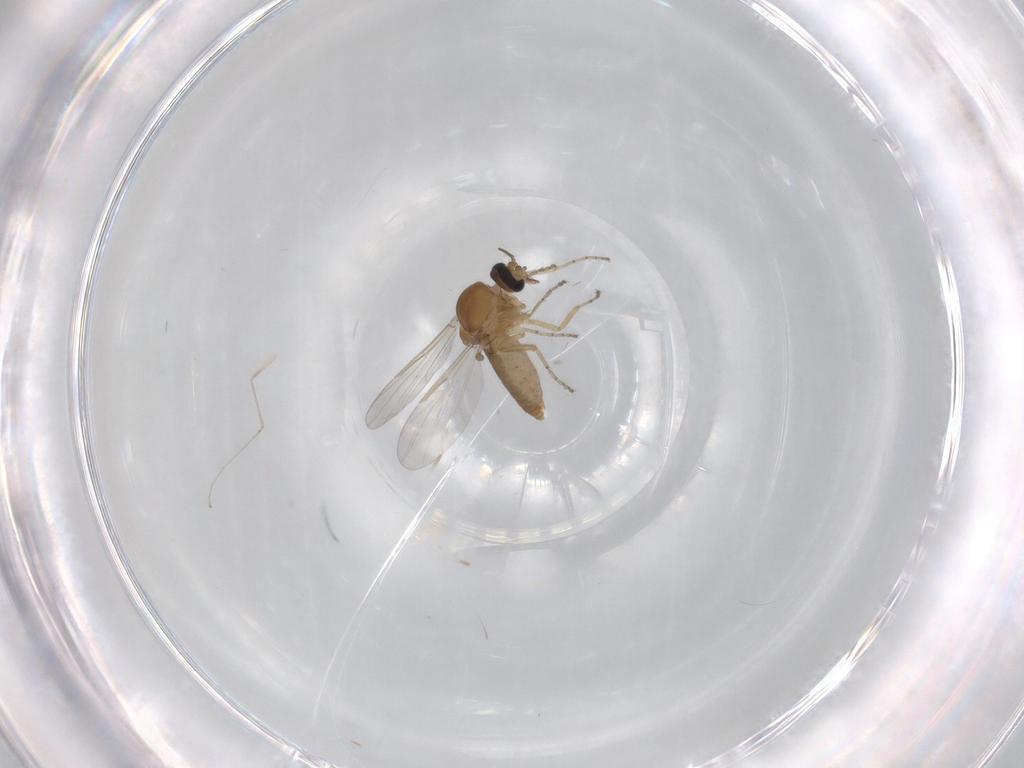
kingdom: Animalia
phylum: Arthropoda
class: Insecta
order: Diptera
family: Ceratopogonidae
